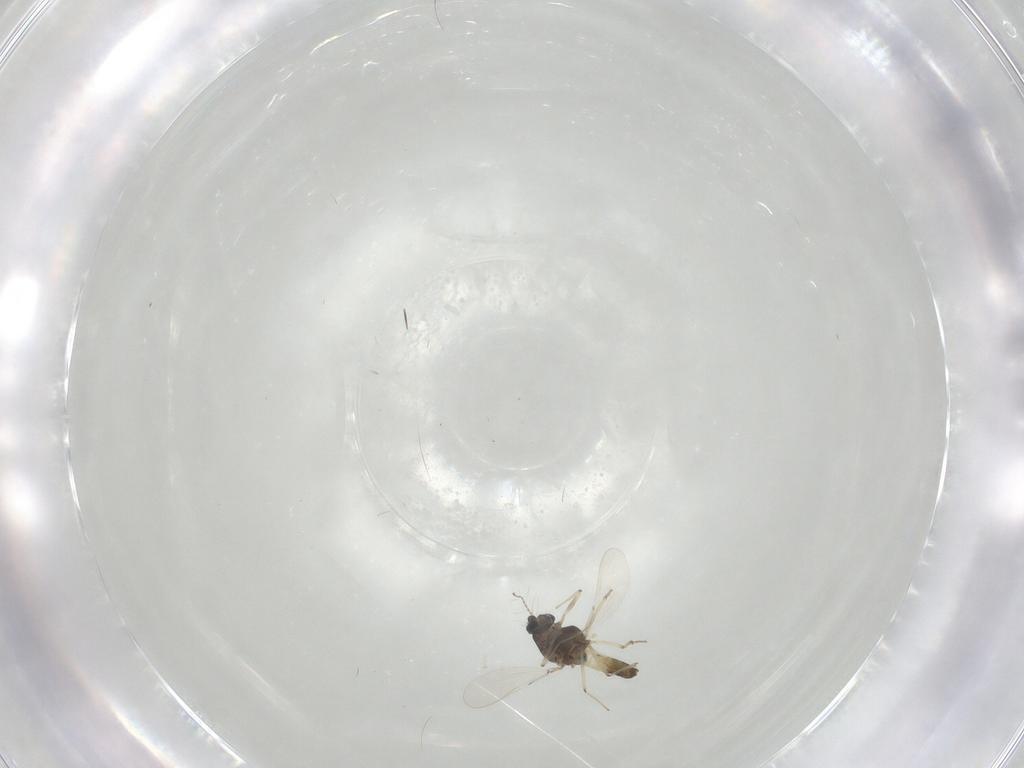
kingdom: Animalia
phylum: Arthropoda
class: Insecta
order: Diptera
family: Chironomidae
